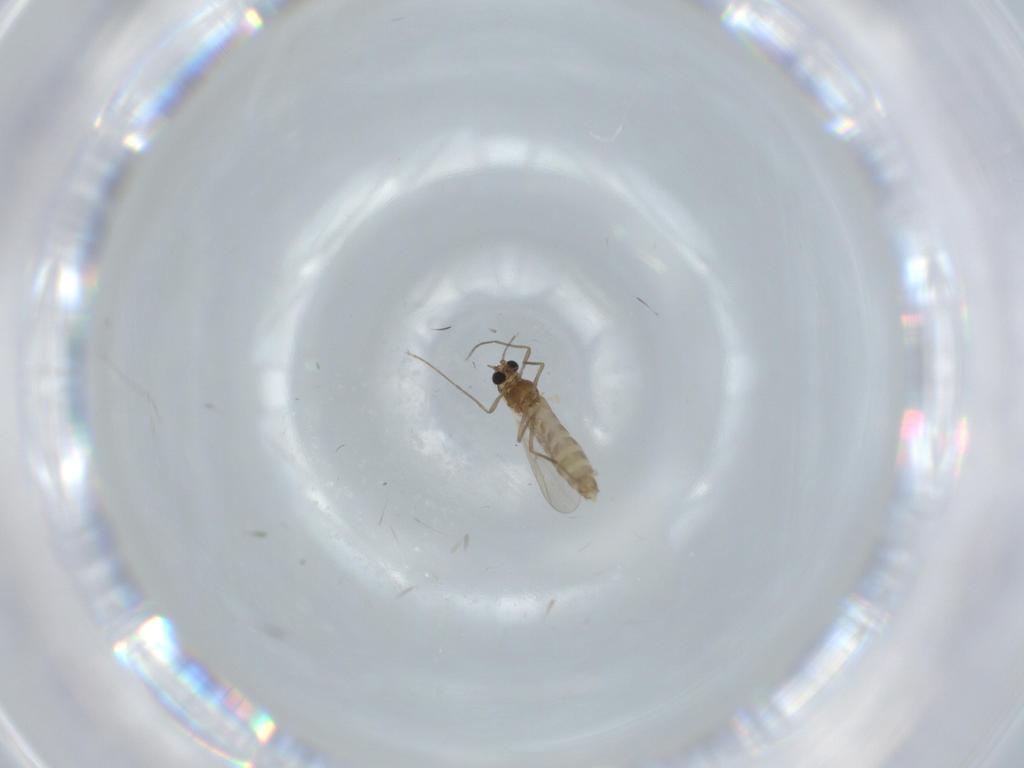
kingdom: Animalia
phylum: Arthropoda
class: Insecta
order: Diptera
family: Chironomidae
